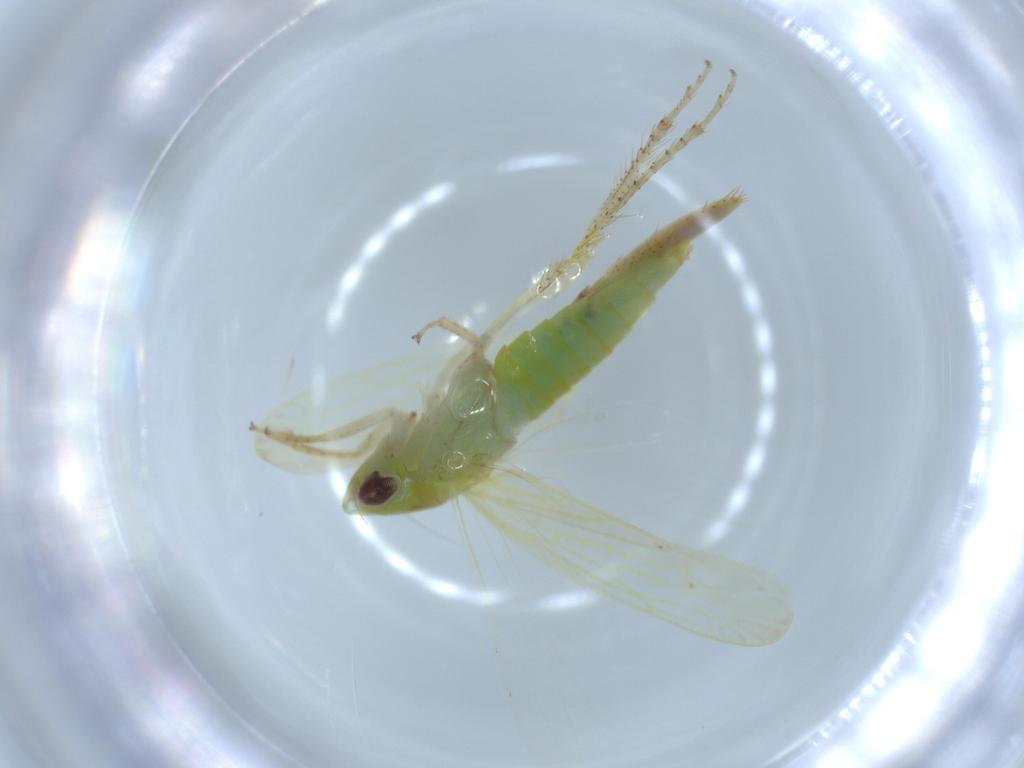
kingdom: Animalia
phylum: Arthropoda
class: Insecta
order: Hemiptera
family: Cicadellidae
